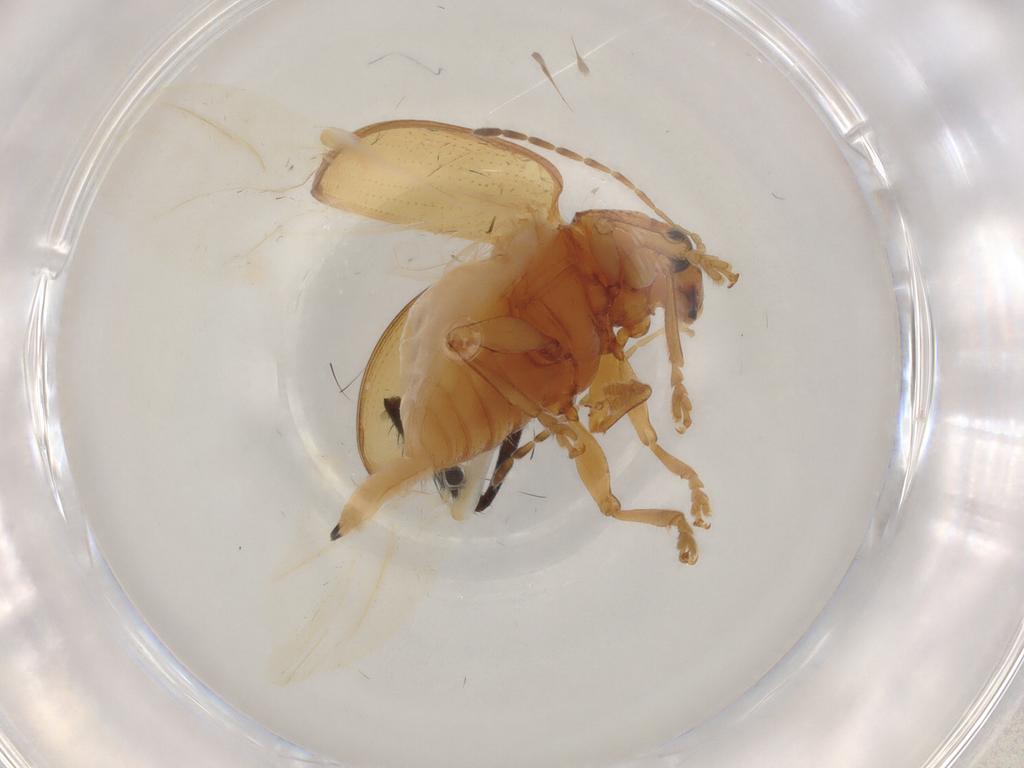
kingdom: Animalia
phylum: Arthropoda
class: Insecta
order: Coleoptera
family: Chrysomelidae
